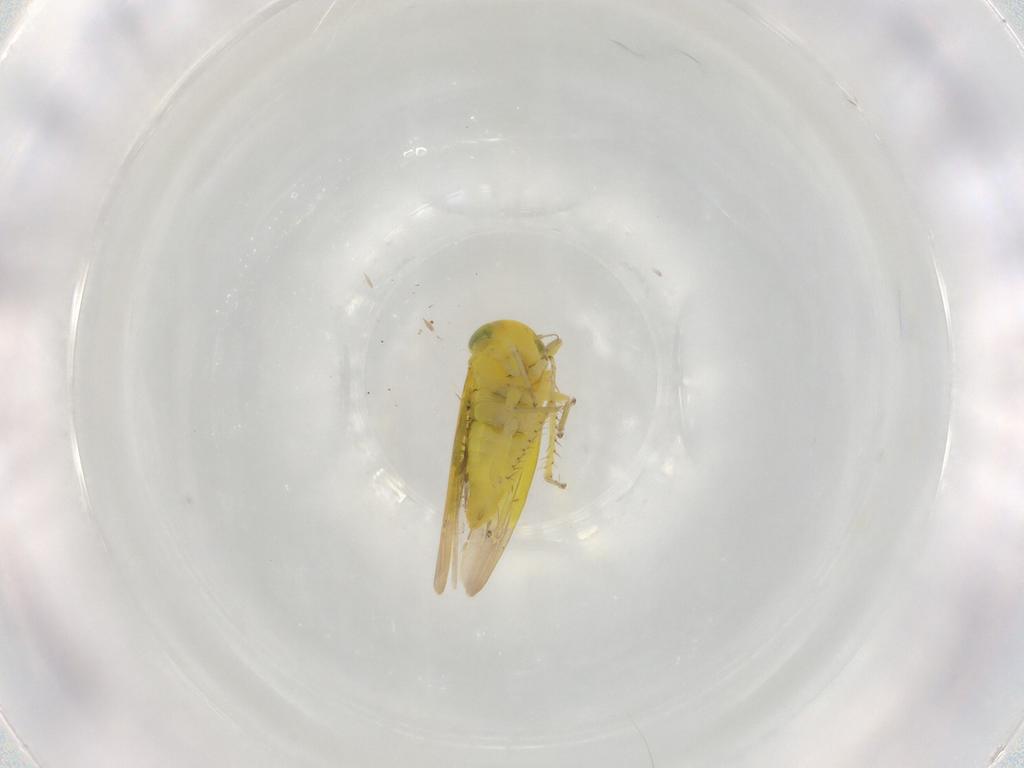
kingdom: Animalia
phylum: Arthropoda
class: Insecta
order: Hemiptera
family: Cicadellidae
